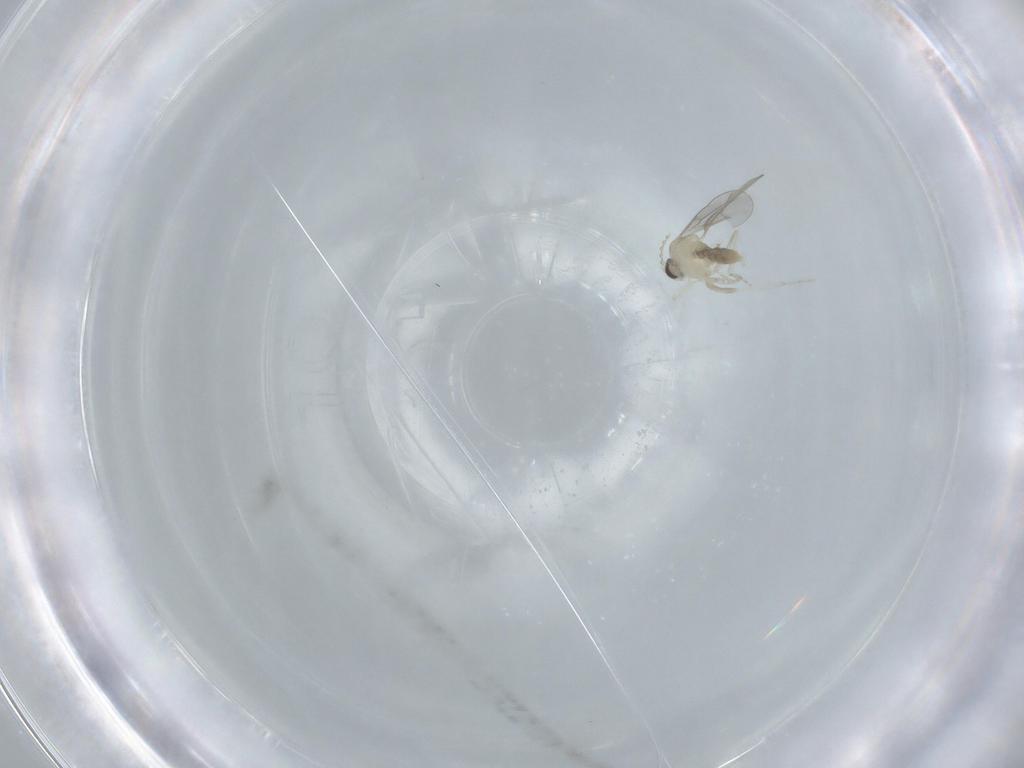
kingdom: Animalia
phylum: Arthropoda
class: Insecta
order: Diptera
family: Cecidomyiidae
